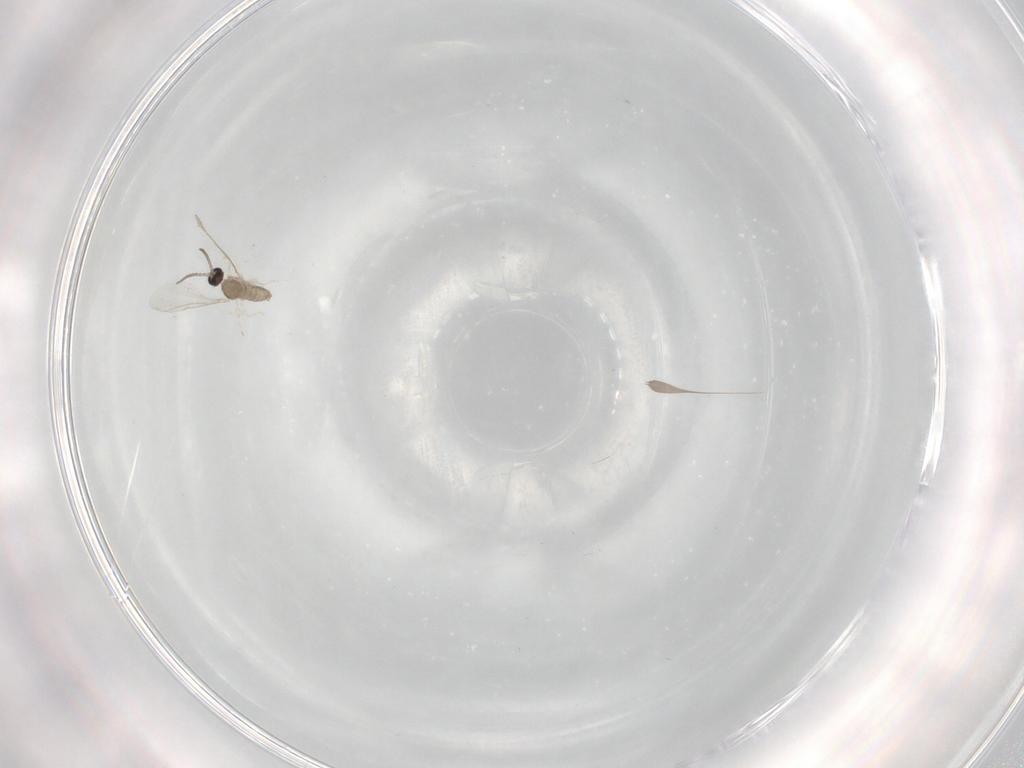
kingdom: Animalia
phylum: Arthropoda
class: Insecta
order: Diptera
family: Cecidomyiidae
